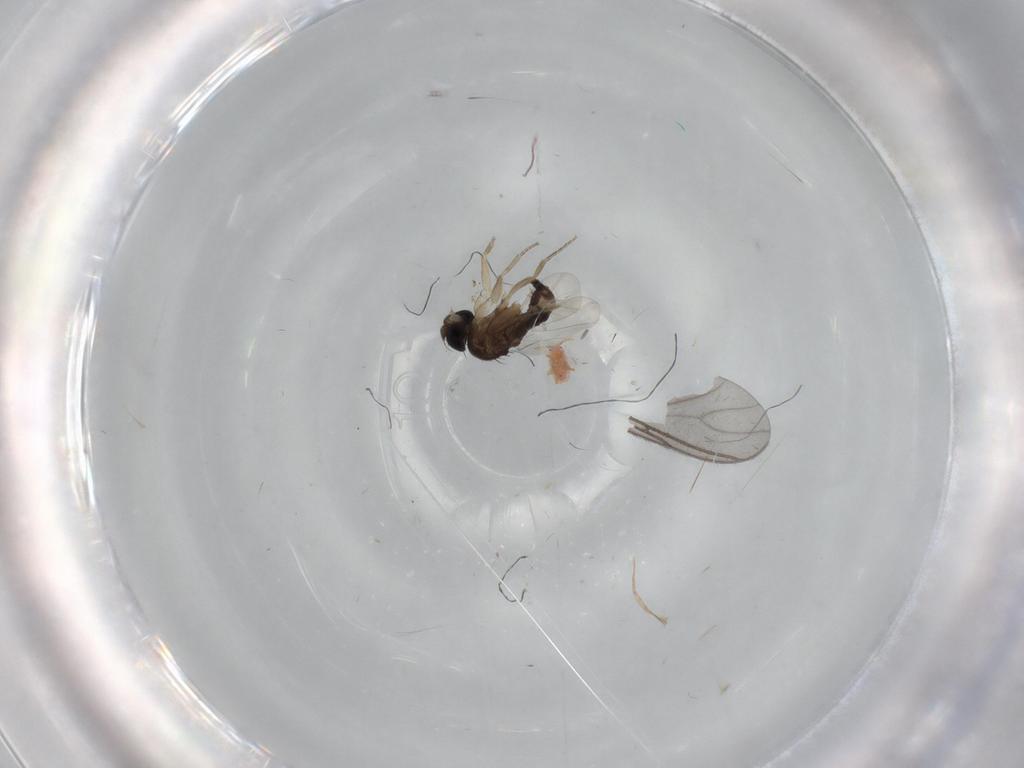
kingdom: Animalia
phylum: Arthropoda
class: Insecta
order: Diptera
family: Phoridae
